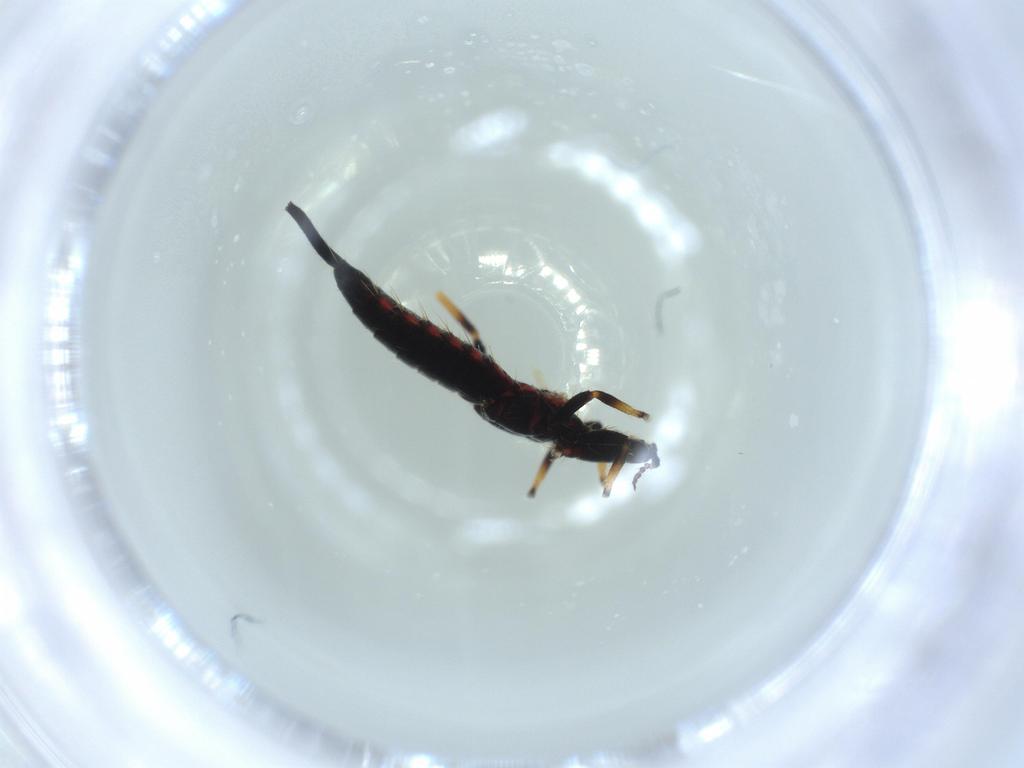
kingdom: Animalia
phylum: Arthropoda
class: Insecta
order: Thysanoptera
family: Phlaeothripidae
